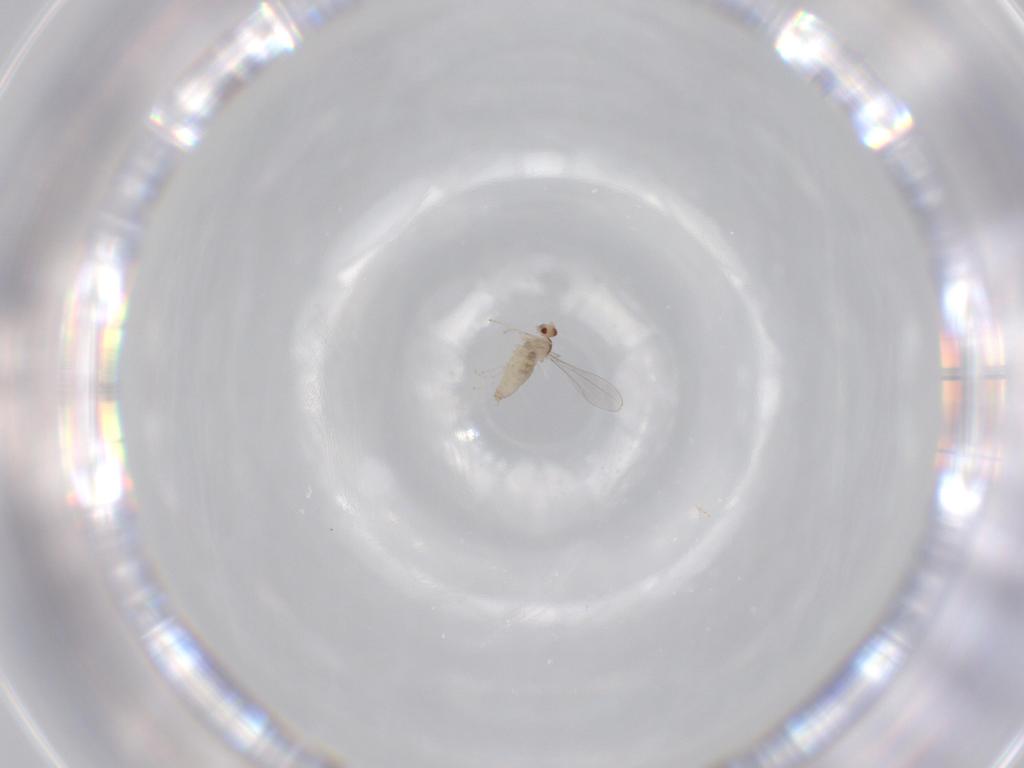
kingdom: Animalia
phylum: Arthropoda
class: Insecta
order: Diptera
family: Cecidomyiidae
